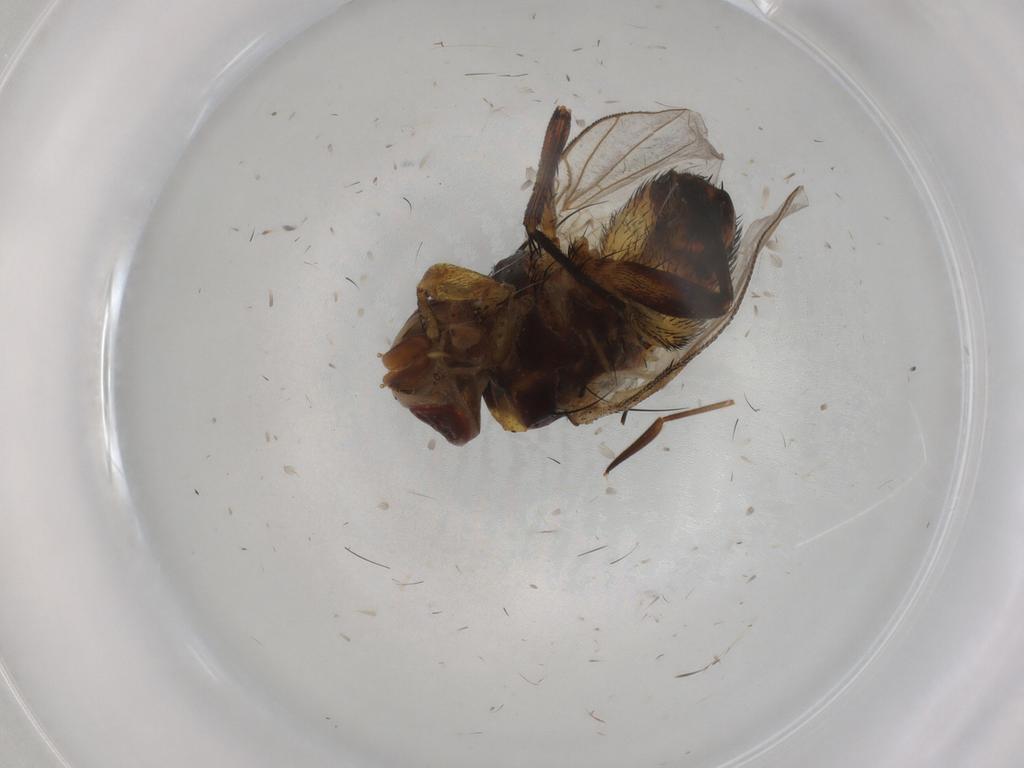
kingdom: Animalia
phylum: Arthropoda
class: Insecta
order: Diptera
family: Glossinidae
